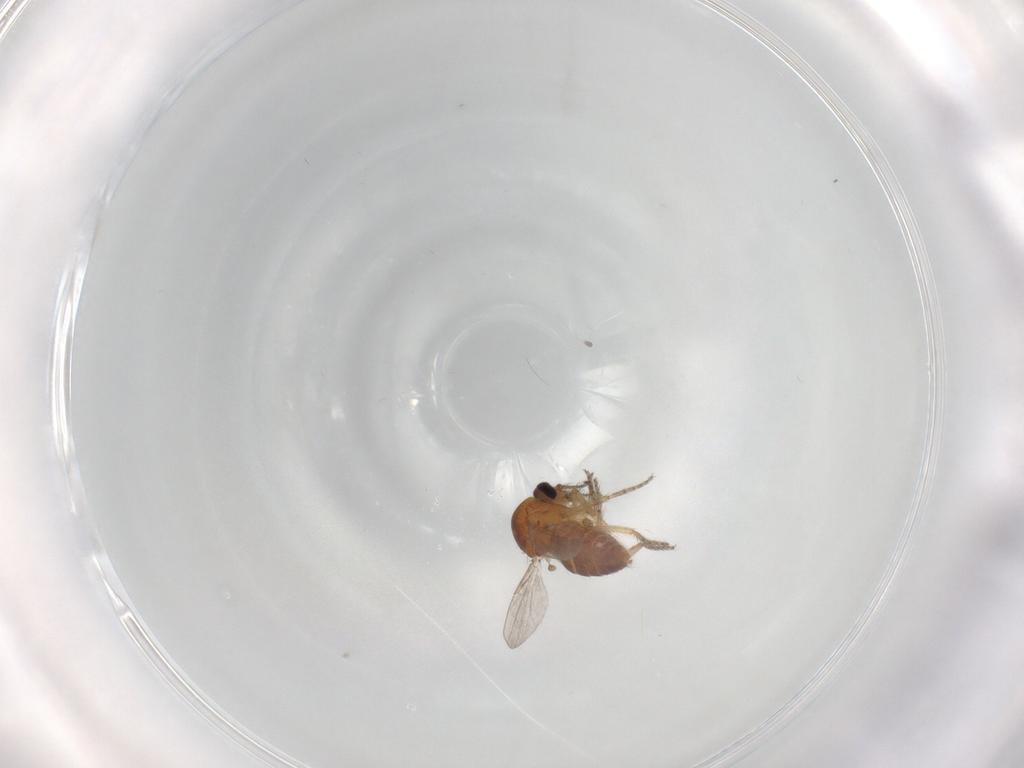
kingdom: Animalia
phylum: Arthropoda
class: Insecta
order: Diptera
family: Ceratopogonidae
